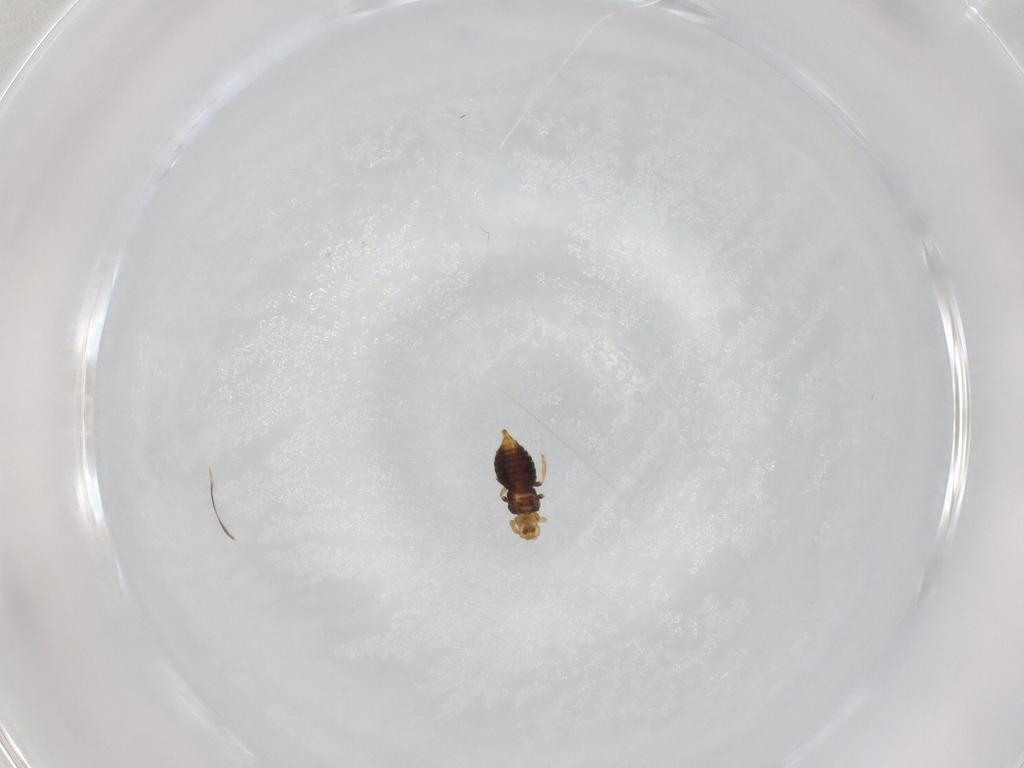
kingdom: Animalia
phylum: Arthropoda
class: Insecta
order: Thysanoptera
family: Thripidae
